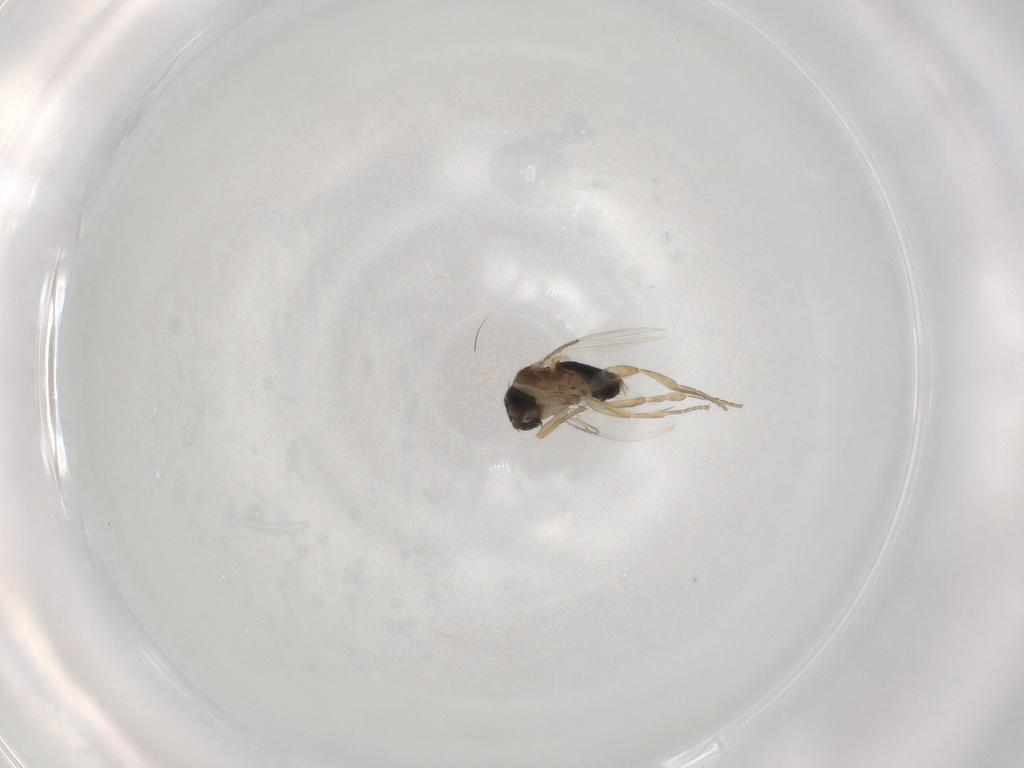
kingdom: Animalia
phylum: Arthropoda
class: Insecta
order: Diptera
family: Phoridae
